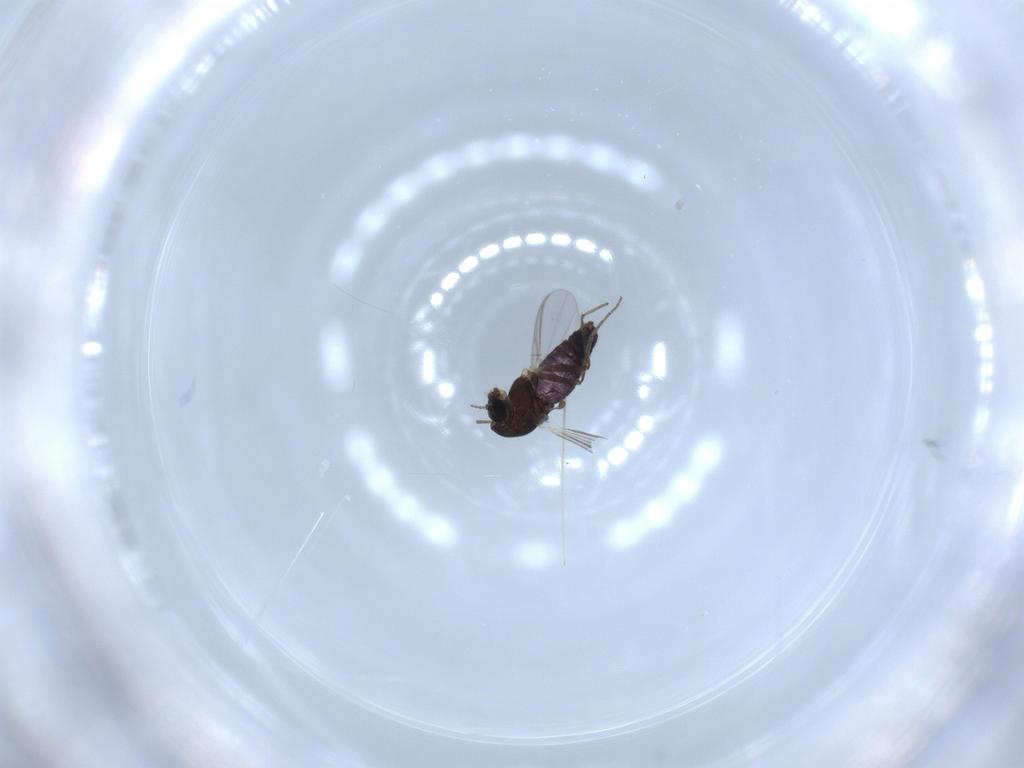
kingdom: Animalia
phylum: Arthropoda
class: Insecta
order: Diptera
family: Chironomidae
